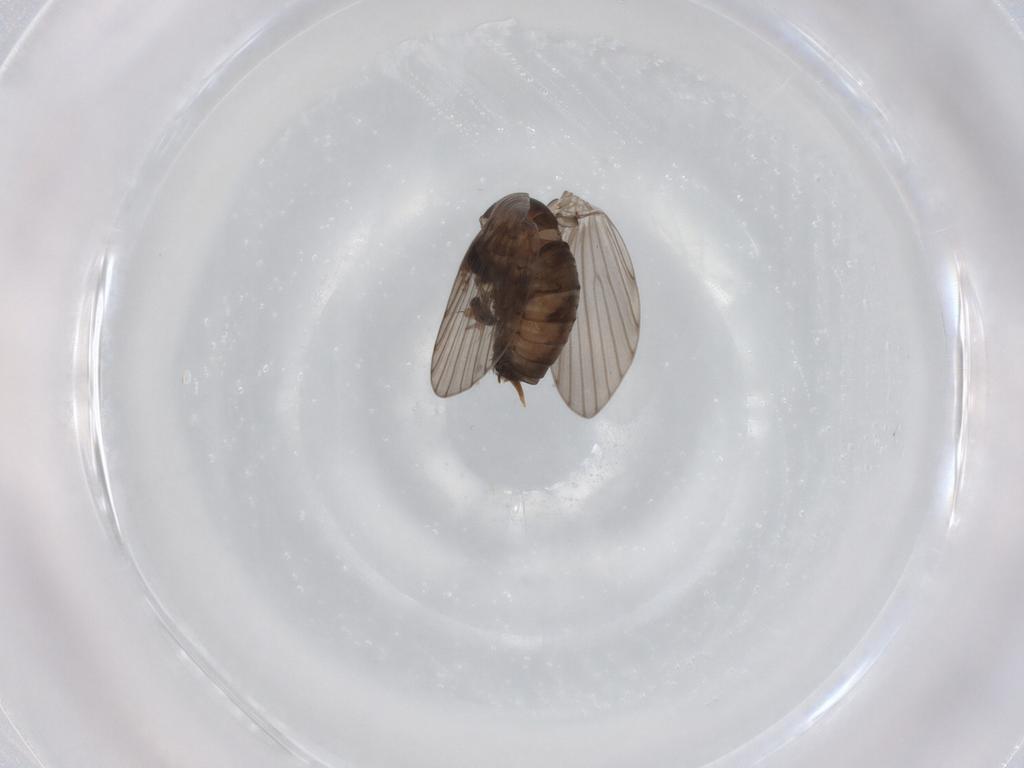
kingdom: Animalia
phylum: Arthropoda
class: Insecta
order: Diptera
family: Psychodidae
